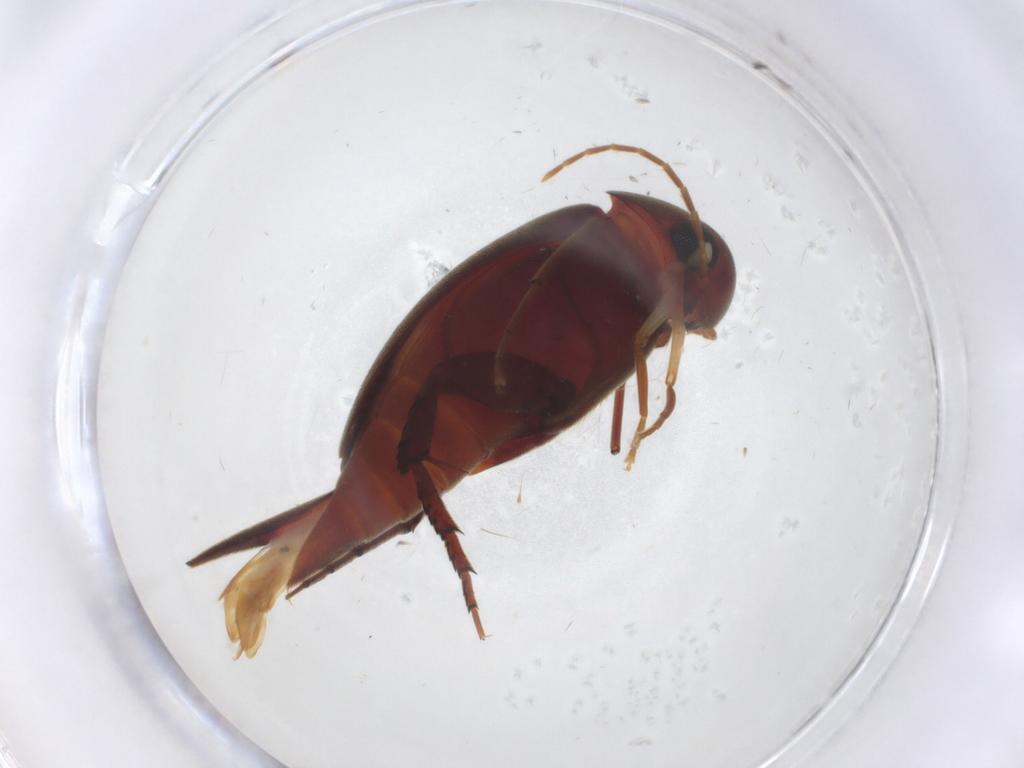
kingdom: Animalia
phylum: Arthropoda
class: Insecta
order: Coleoptera
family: Mordellidae
